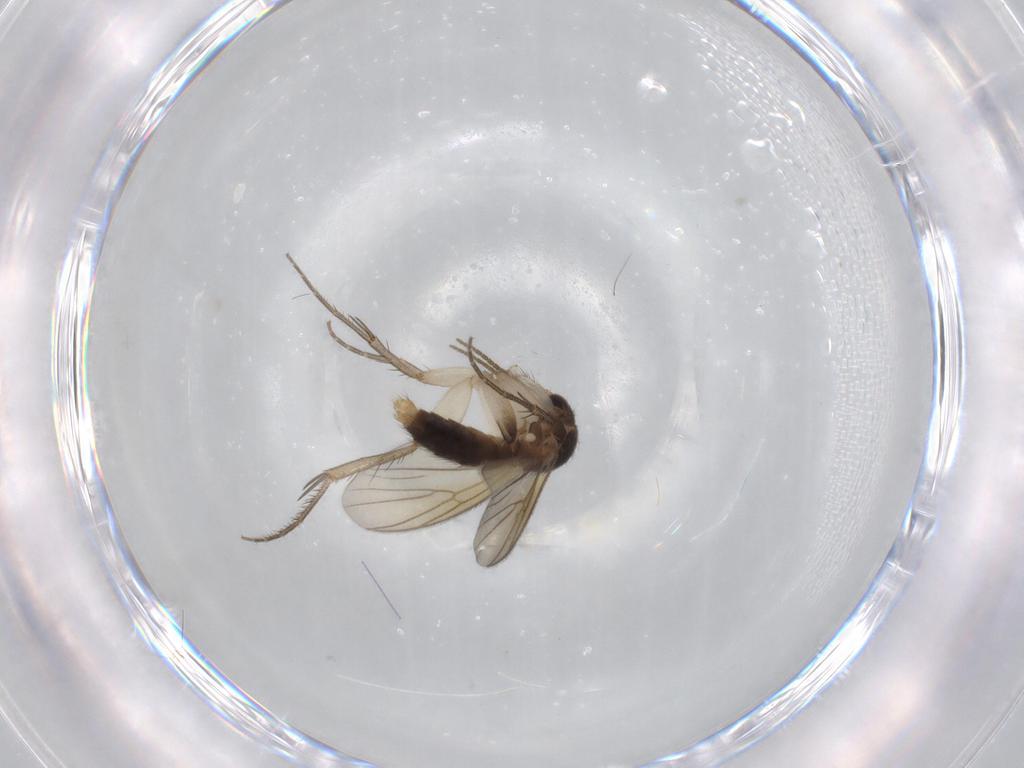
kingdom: Animalia
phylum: Arthropoda
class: Insecta
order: Diptera
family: Mycetophilidae
